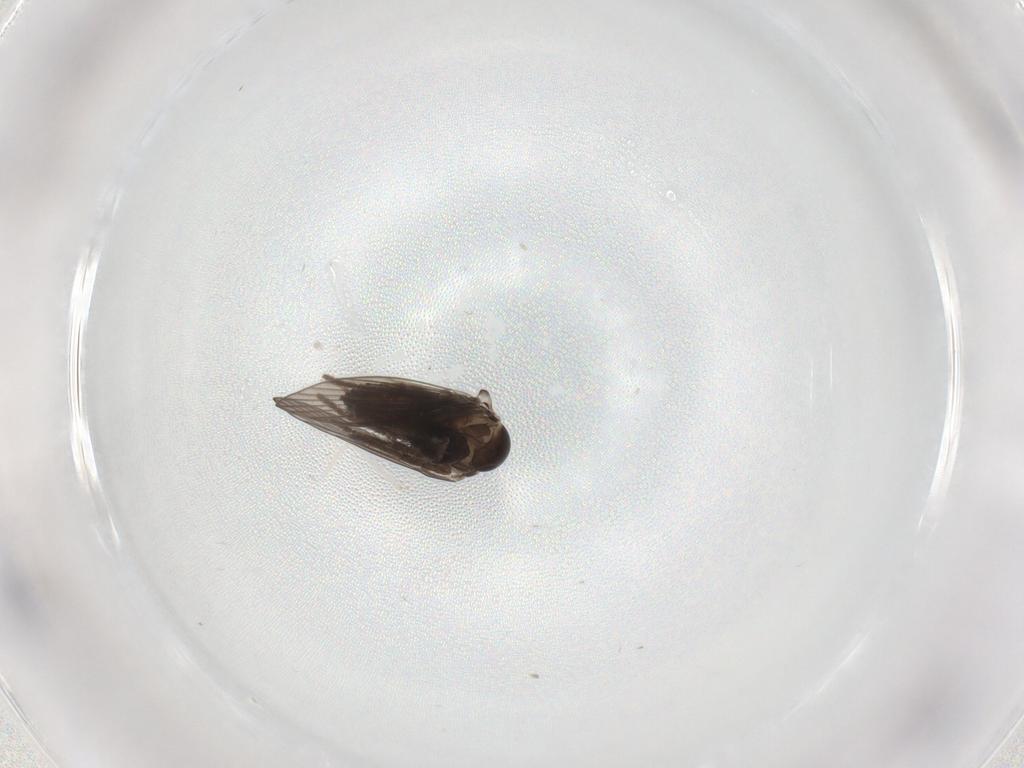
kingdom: Animalia
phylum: Arthropoda
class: Insecta
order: Diptera
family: Psychodidae
